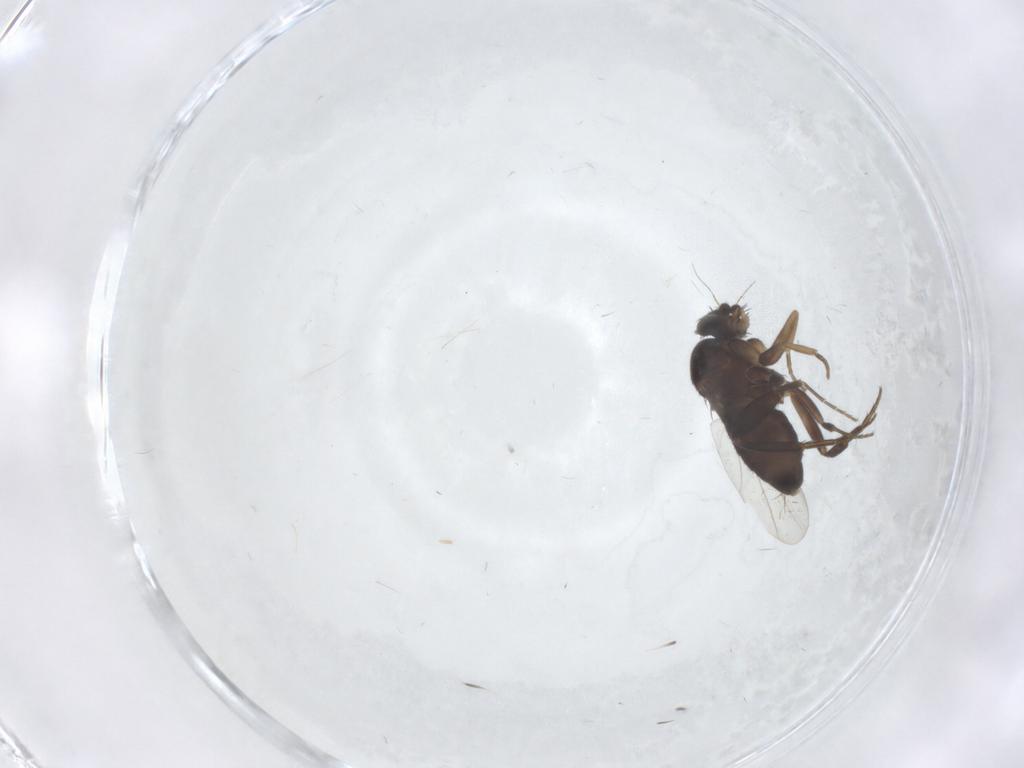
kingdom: Animalia
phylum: Arthropoda
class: Insecta
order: Diptera
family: Phoridae
